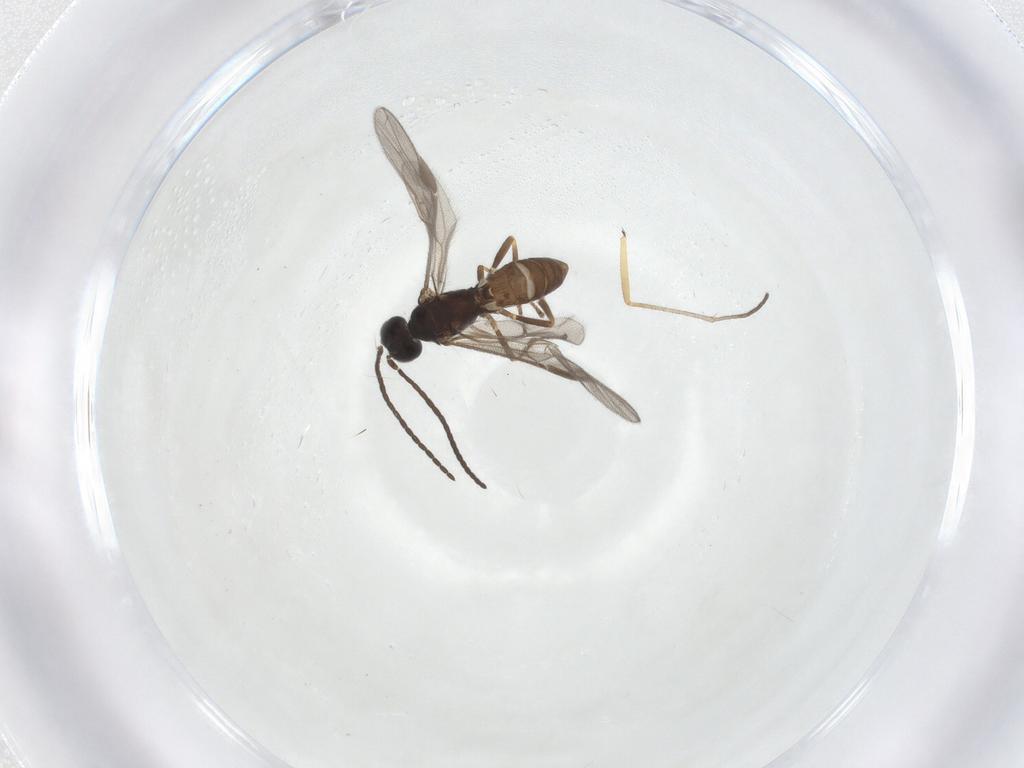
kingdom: Animalia
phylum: Arthropoda
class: Insecta
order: Hymenoptera
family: Braconidae
